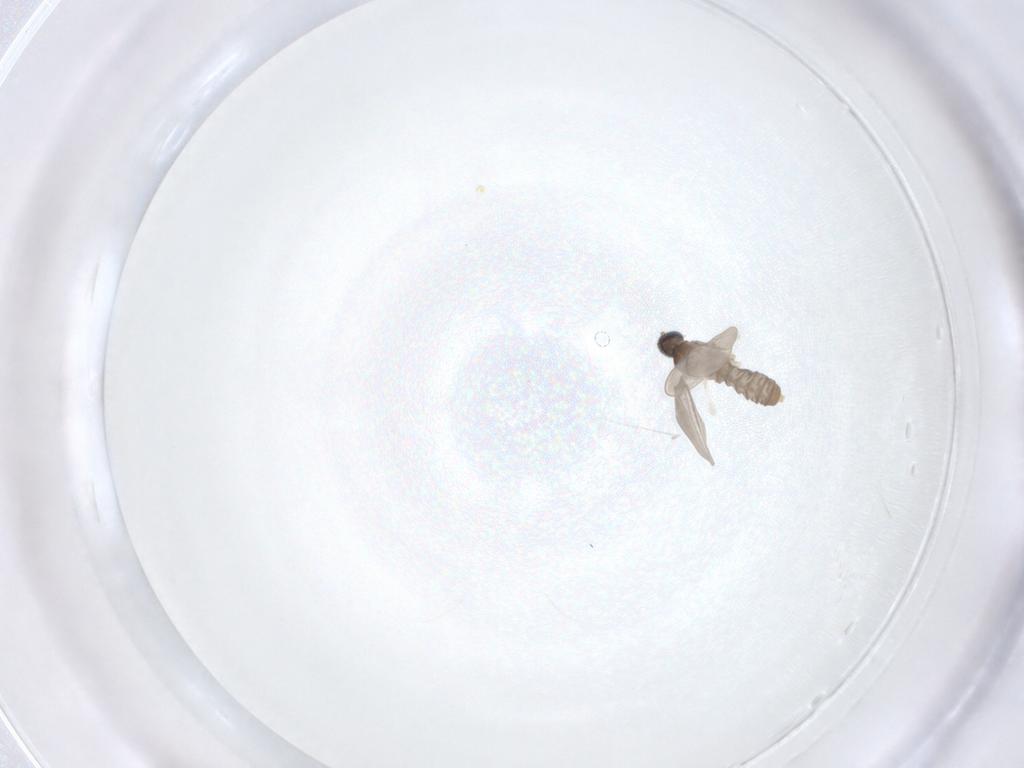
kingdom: Animalia
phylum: Arthropoda
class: Insecta
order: Diptera
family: Cecidomyiidae
